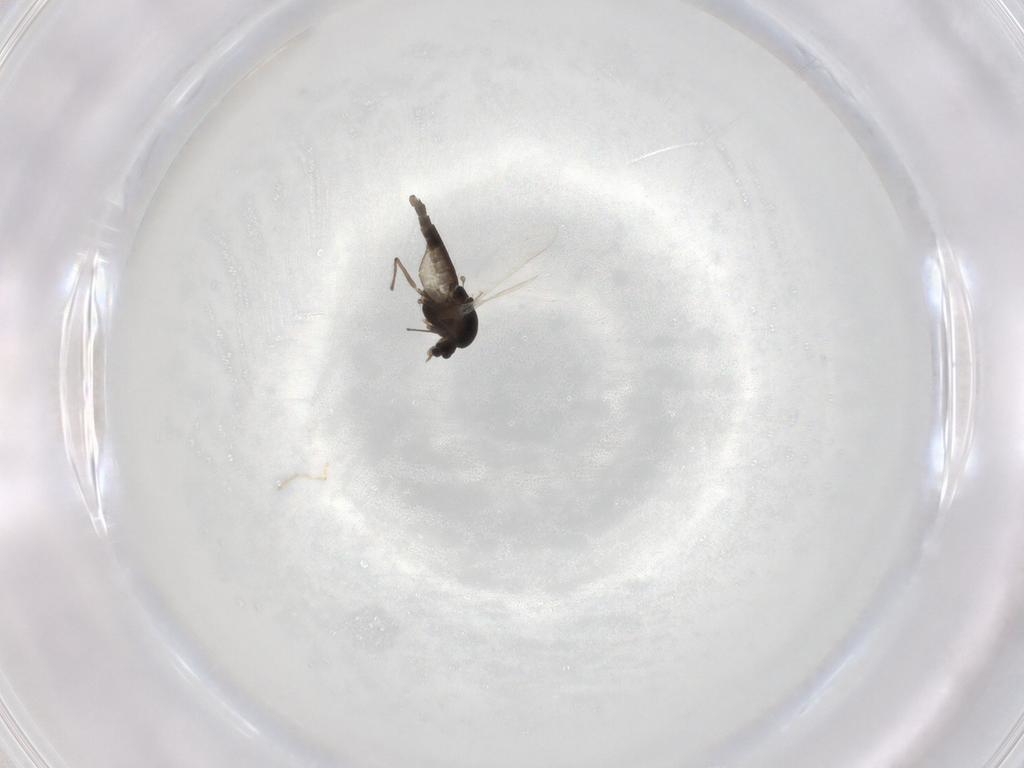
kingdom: Animalia
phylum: Arthropoda
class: Insecta
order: Diptera
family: Chironomidae
